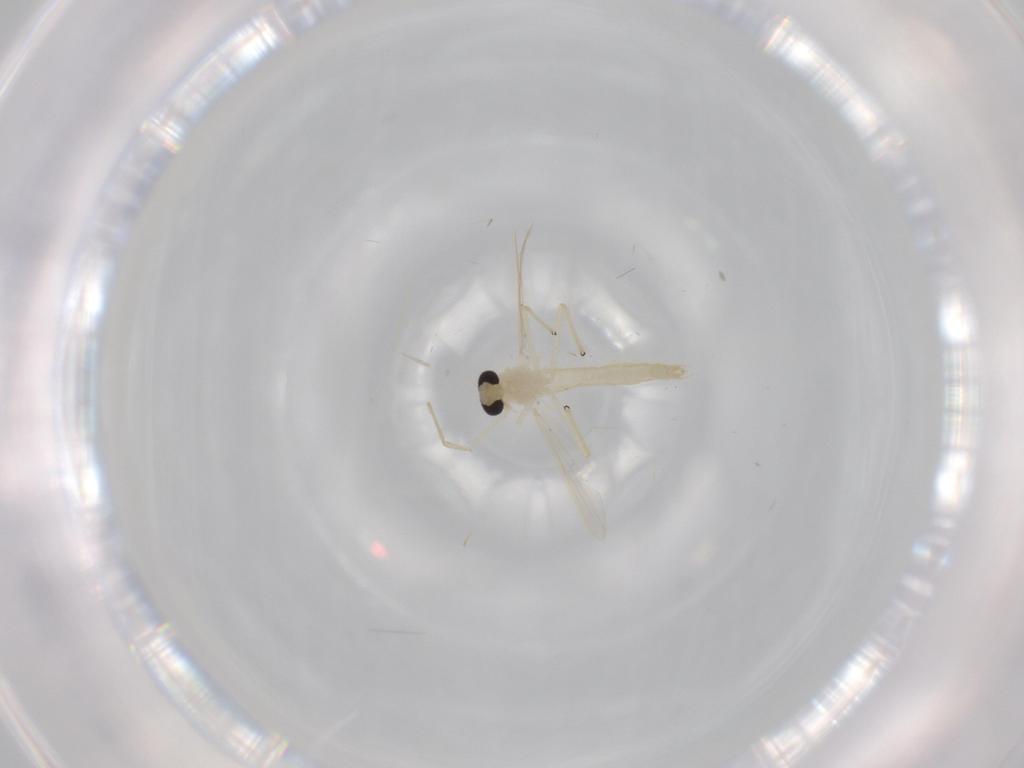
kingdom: Animalia
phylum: Arthropoda
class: Insecta
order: Diptera
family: Chironomidae
